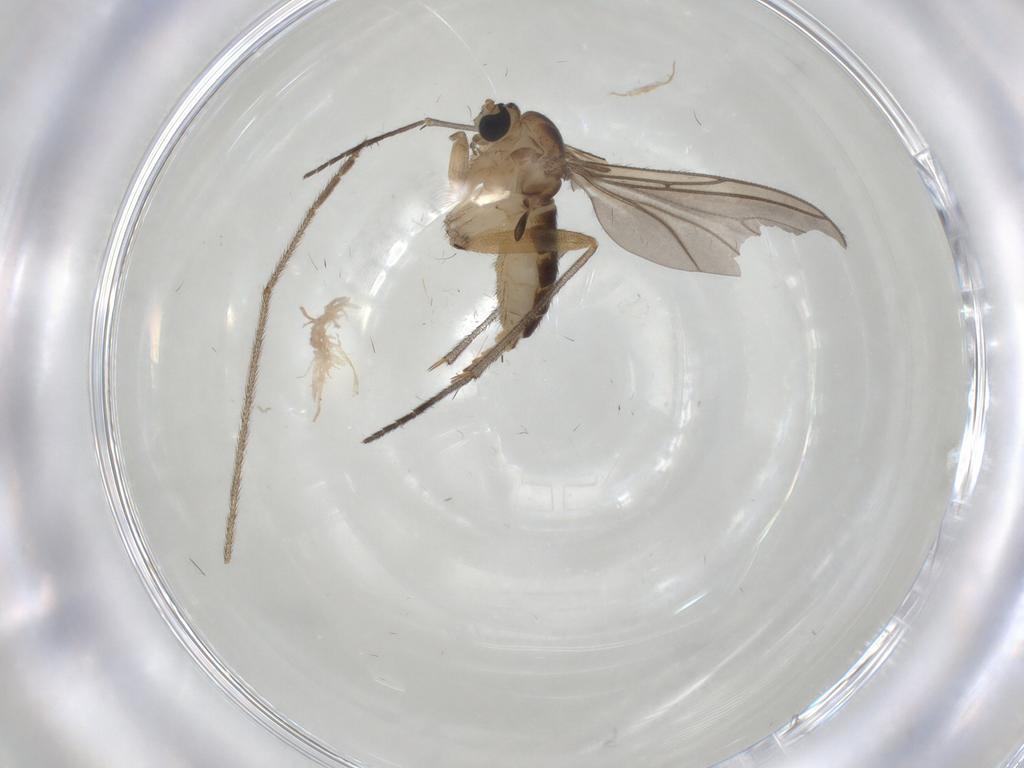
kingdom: Animalia
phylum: Arthropoda
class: Insecta
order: Diptera
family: Sciaridae
